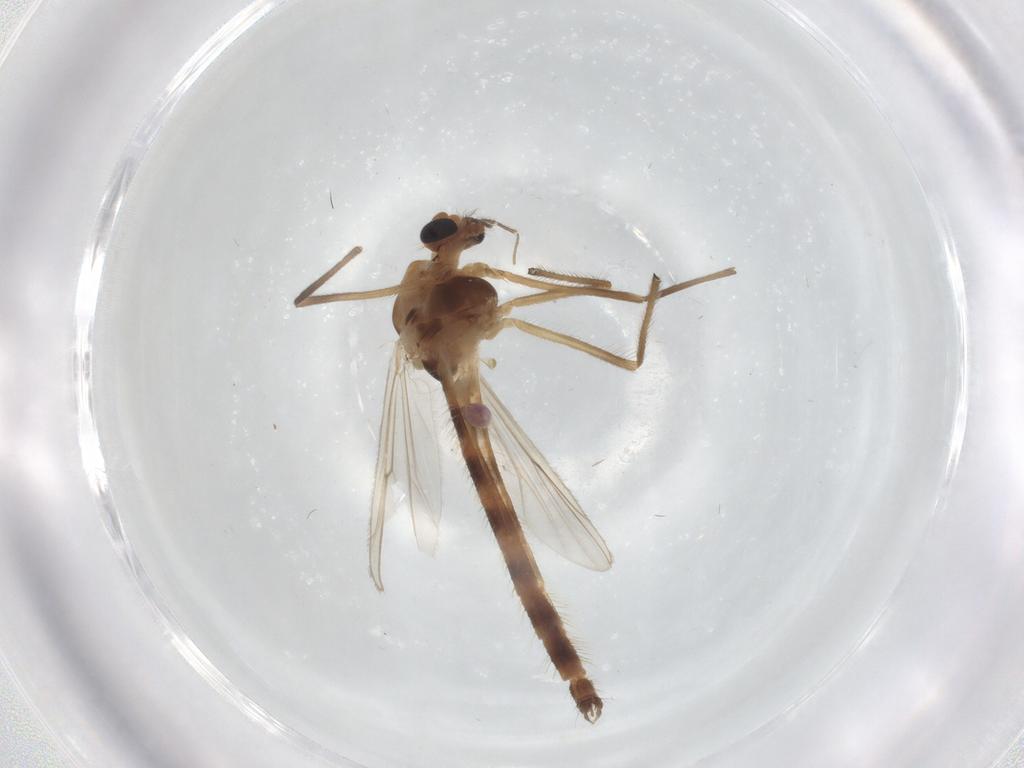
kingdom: Animalia
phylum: Arthropoda
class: Insecta
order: Diptera
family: Chironomidae
